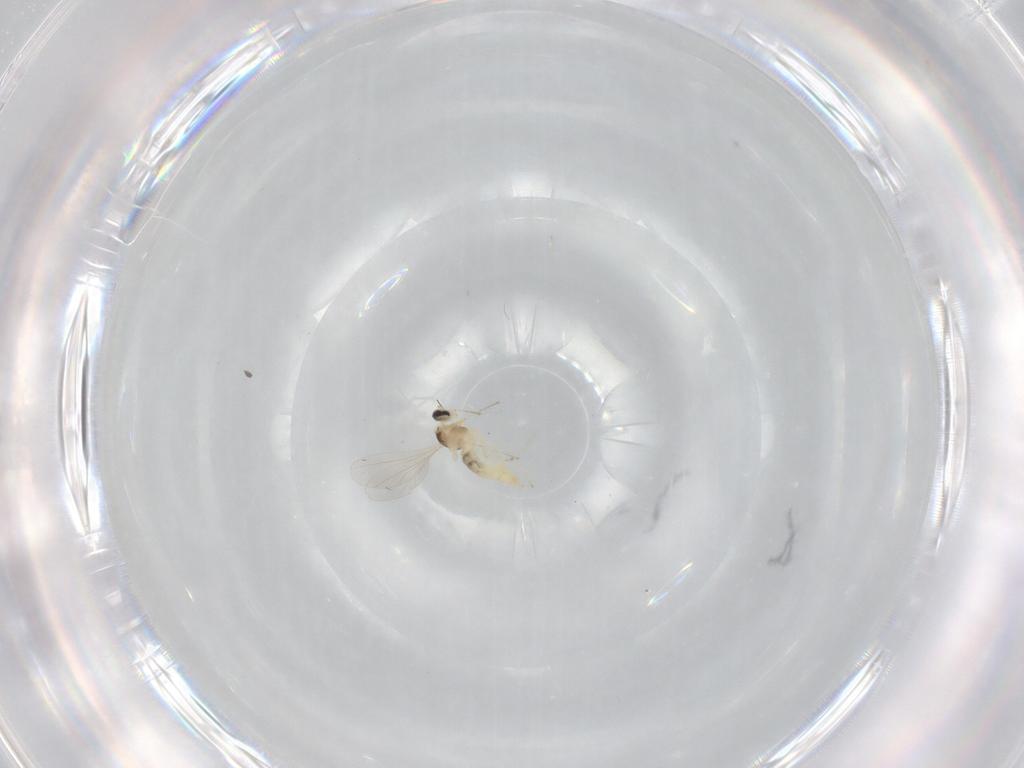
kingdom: Animalia
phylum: Arthropoda
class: Insecta
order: Diptera
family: Cecidomyiidae
